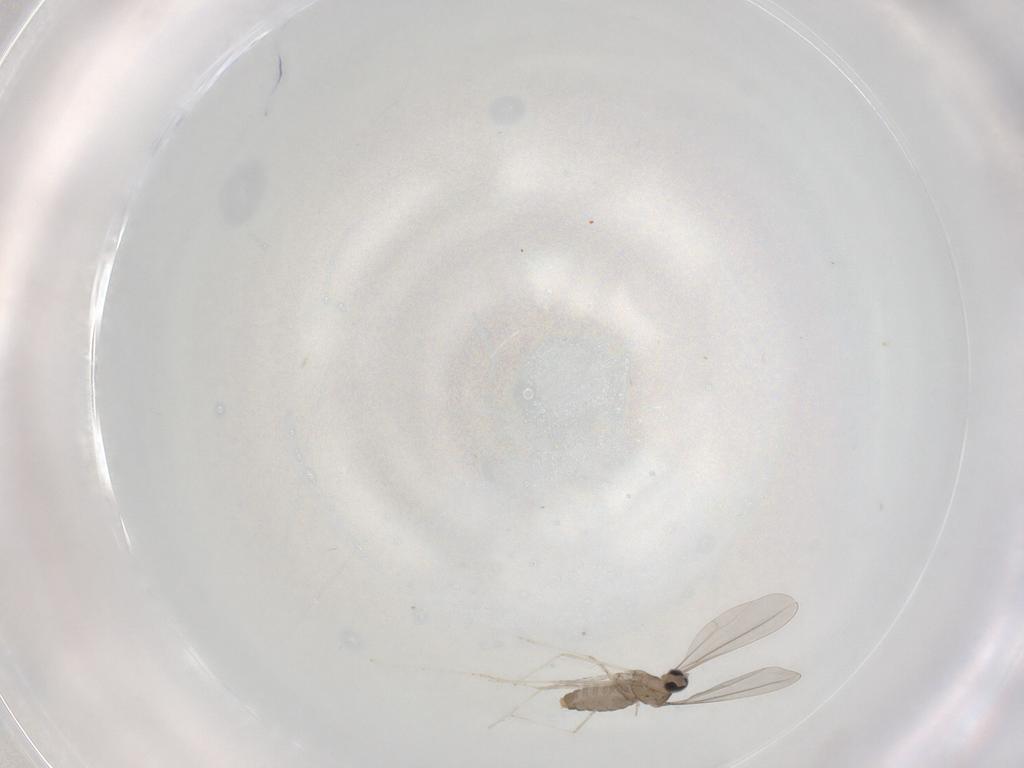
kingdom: Animalia
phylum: Arthropoda
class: Insecta
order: Diptera
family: Cecidomyiidae
